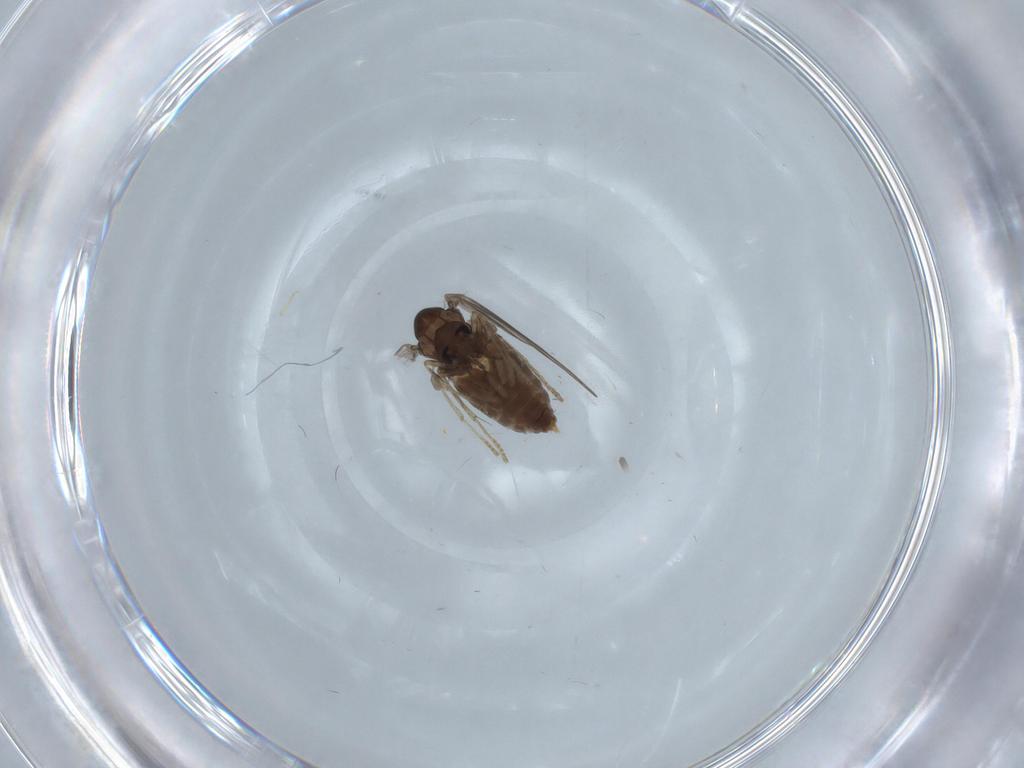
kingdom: Animalia
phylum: Arthropoda
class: Insecta
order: Diptera
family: Psychodidae
